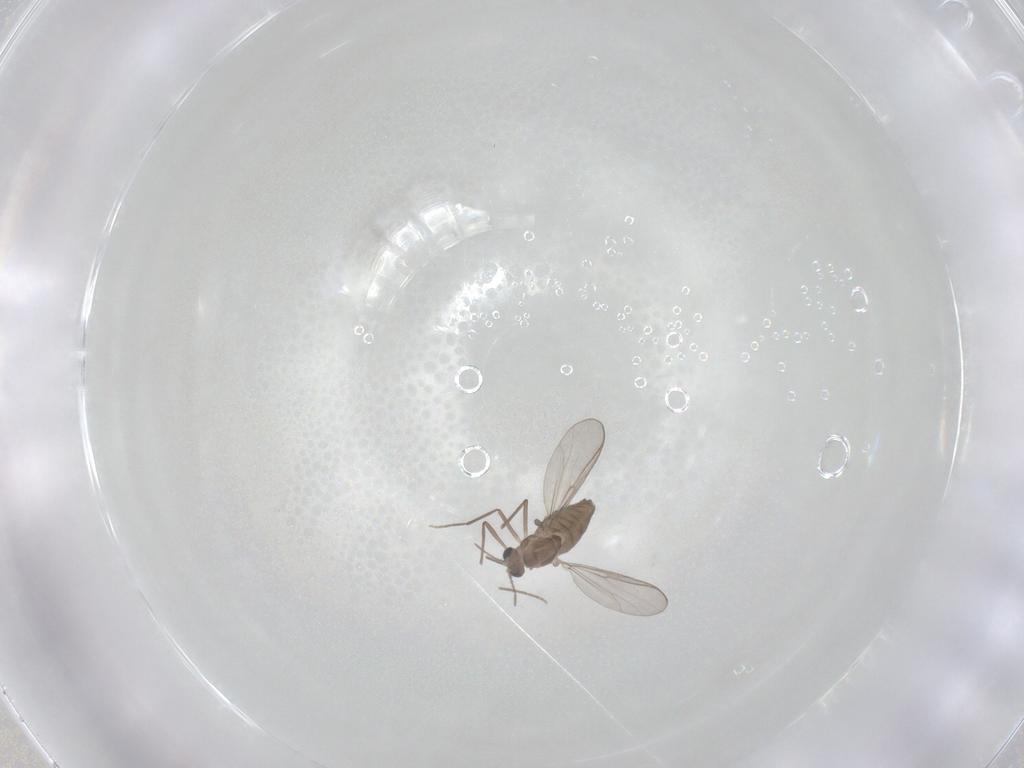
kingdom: Animalia
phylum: Arthropoda
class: Insecta
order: Diptera
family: Chironomidae
